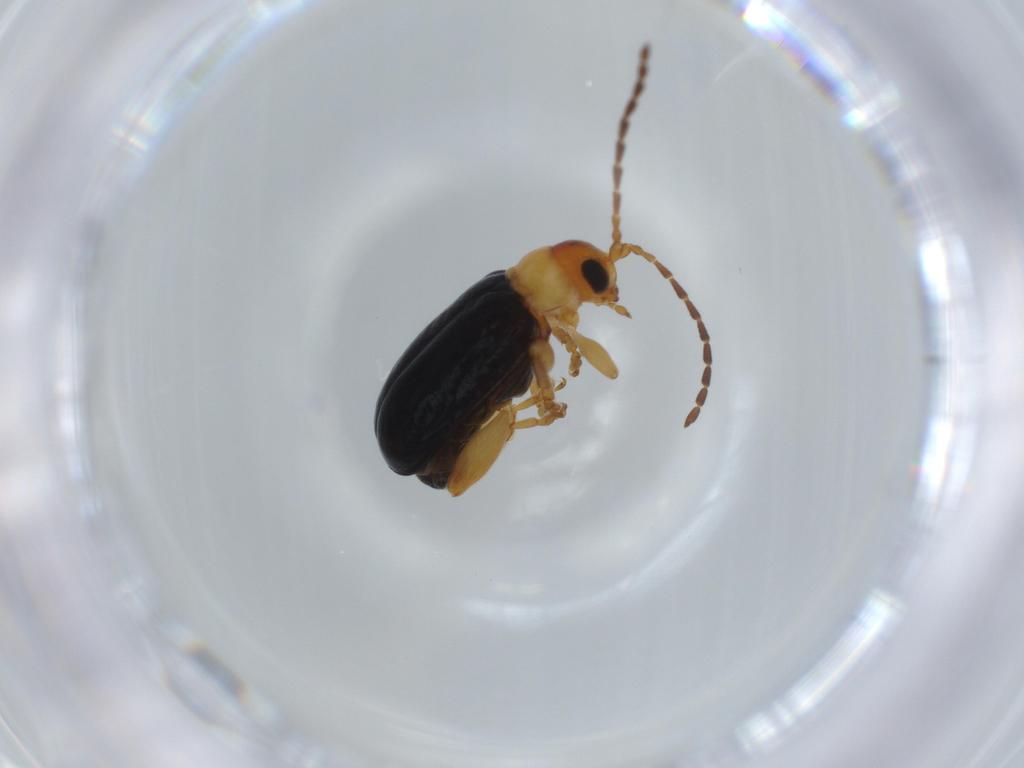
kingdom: Animalia
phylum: Arthropoda
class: Insecta
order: Coleoptera
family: Chrysomelidae
